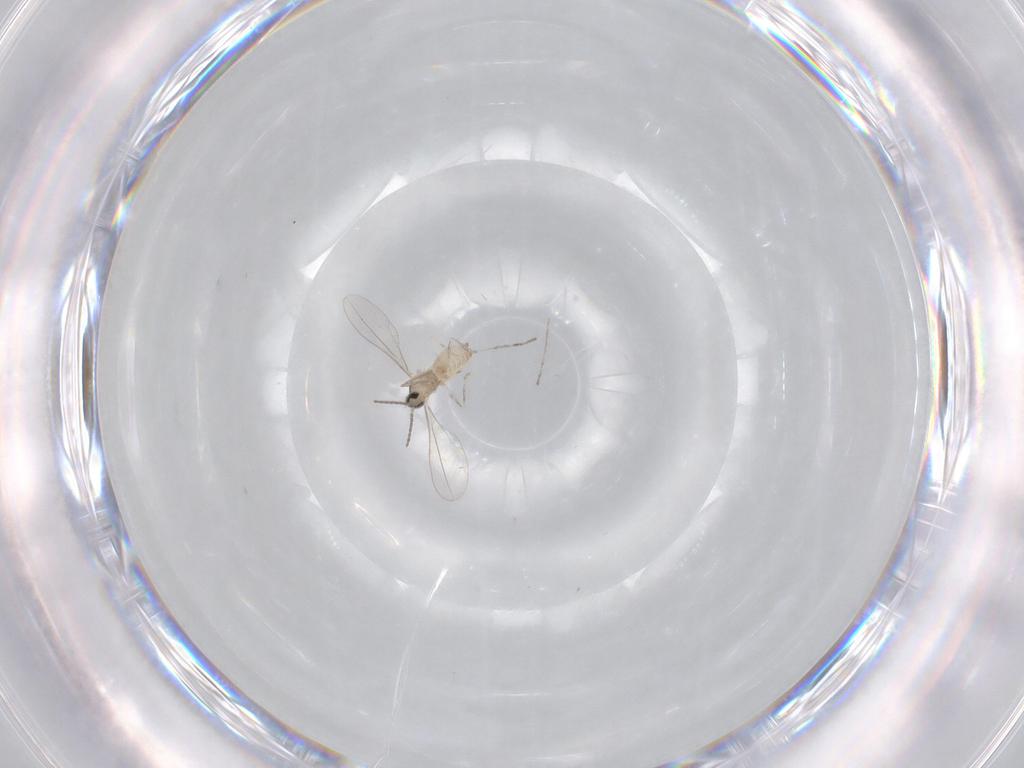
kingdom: Animalia
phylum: Arthropoda
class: Insecta
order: Diptera
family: Cecidomyiidae
